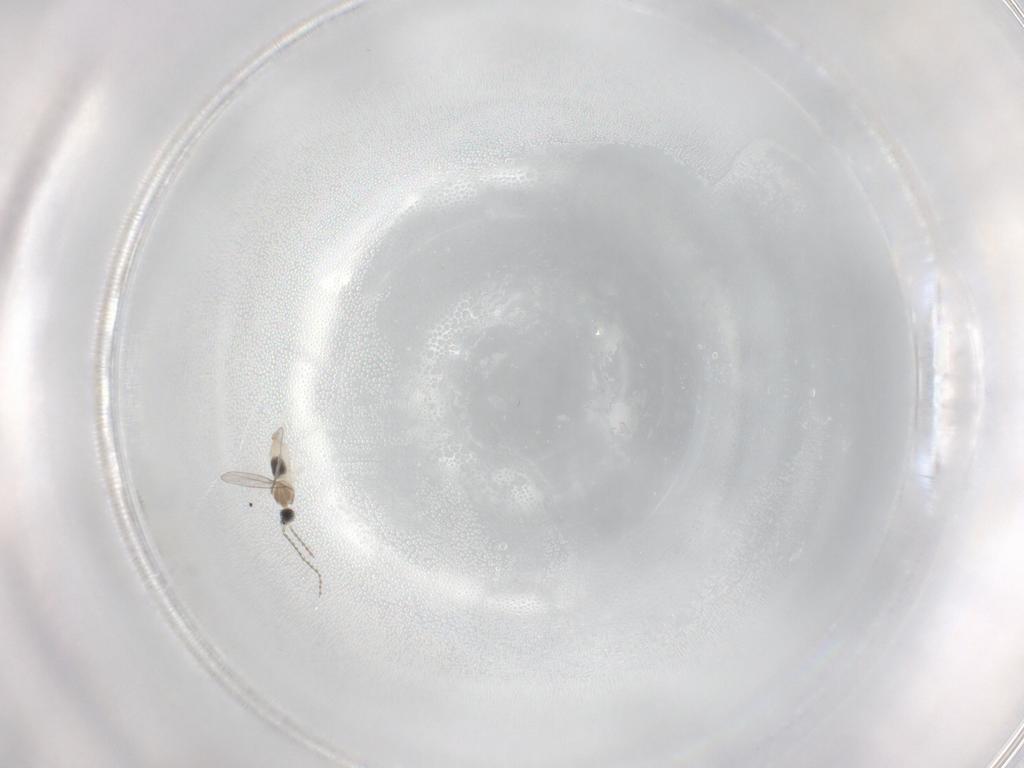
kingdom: Animalia
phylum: Arthropoda
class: Insecta
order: Diptera
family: Cecidomyiidae
